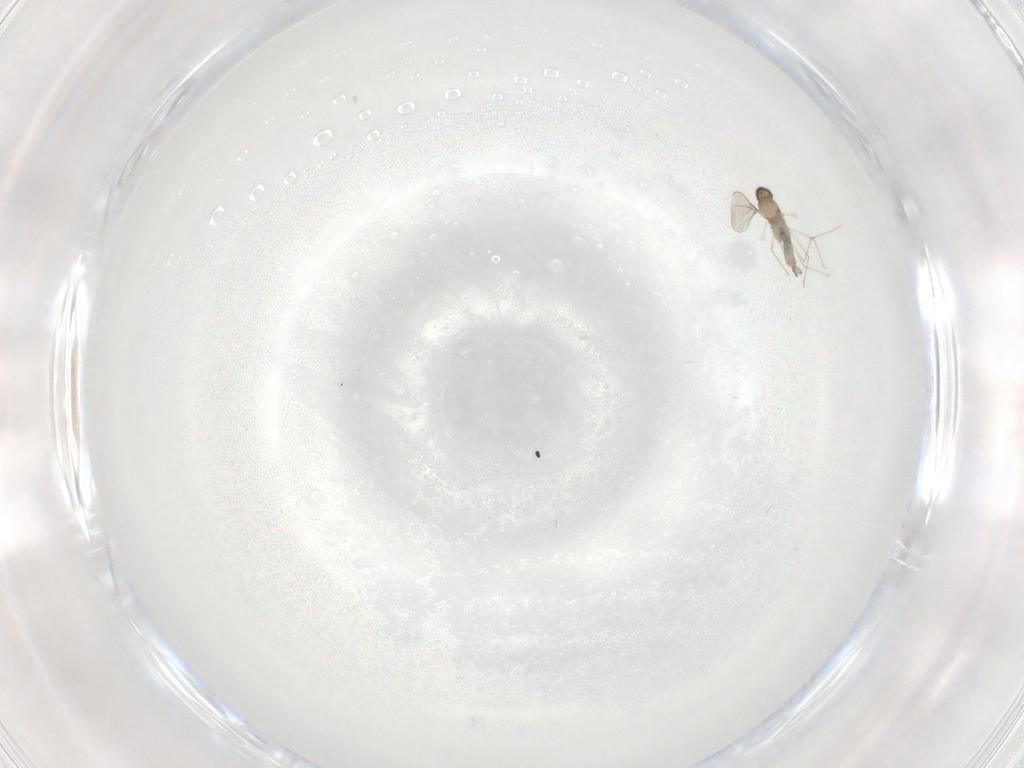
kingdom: Animalia
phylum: Arthropoda
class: Insecta
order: Diptera
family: Cecidomyiidae
